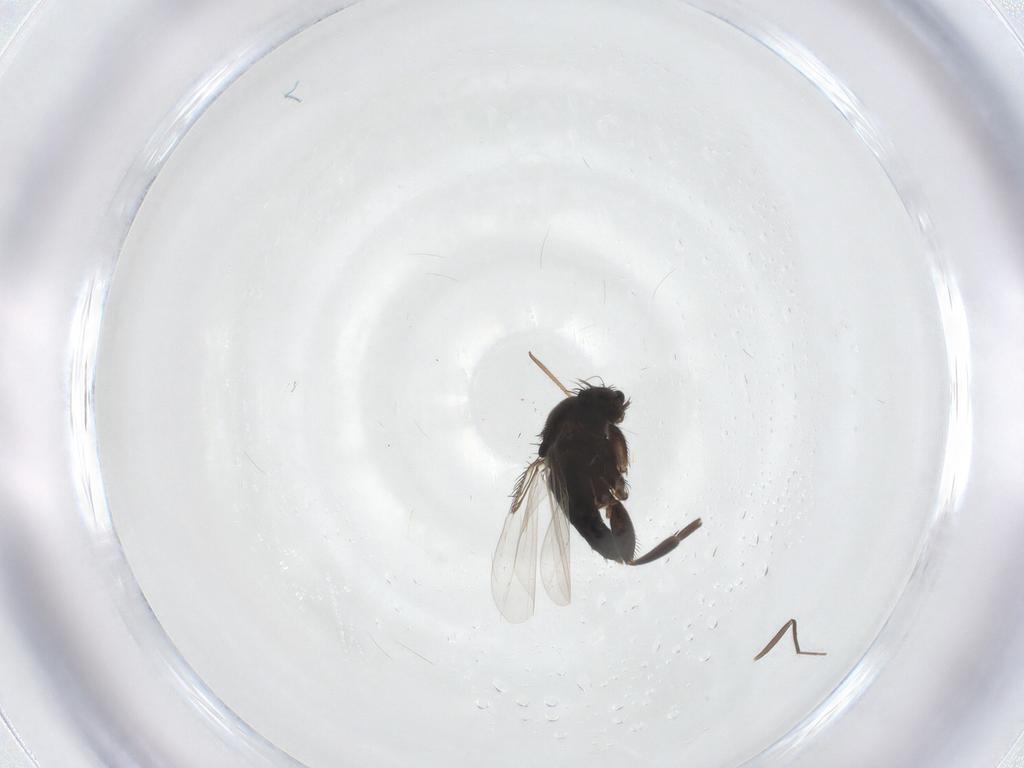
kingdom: Animalia
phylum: Arthropoda
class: Insecta
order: Diptera
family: Phoridae
